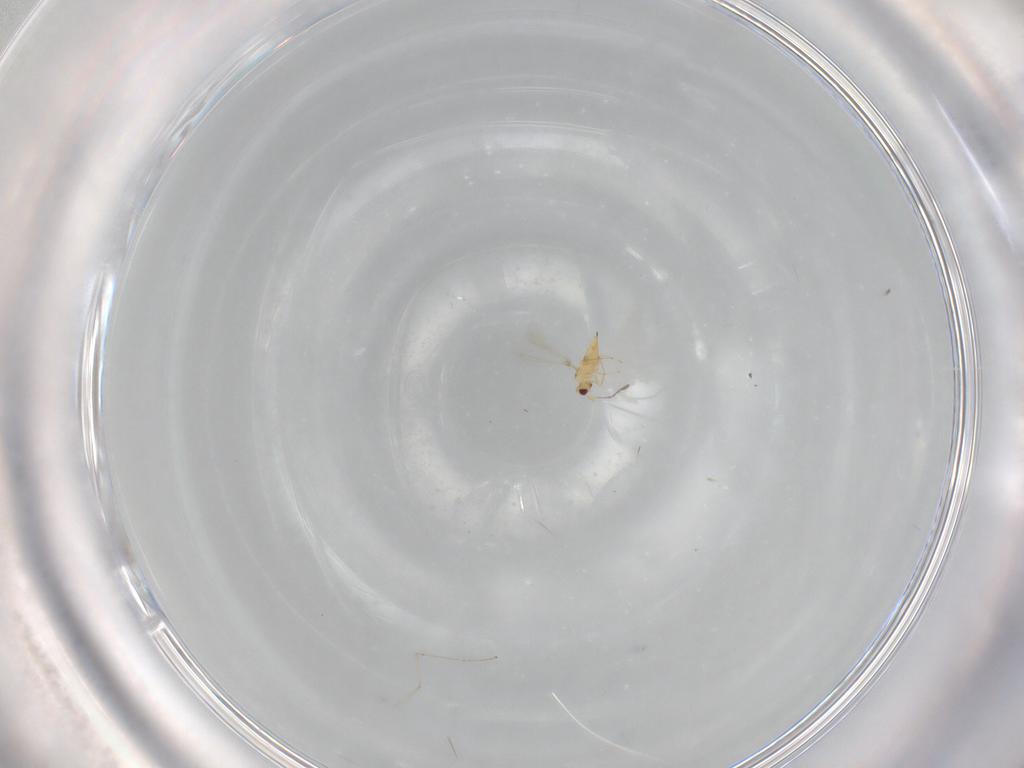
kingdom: Animalia
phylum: Arthropoda
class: Insecta
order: Hymenoptera
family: Mymaridae
